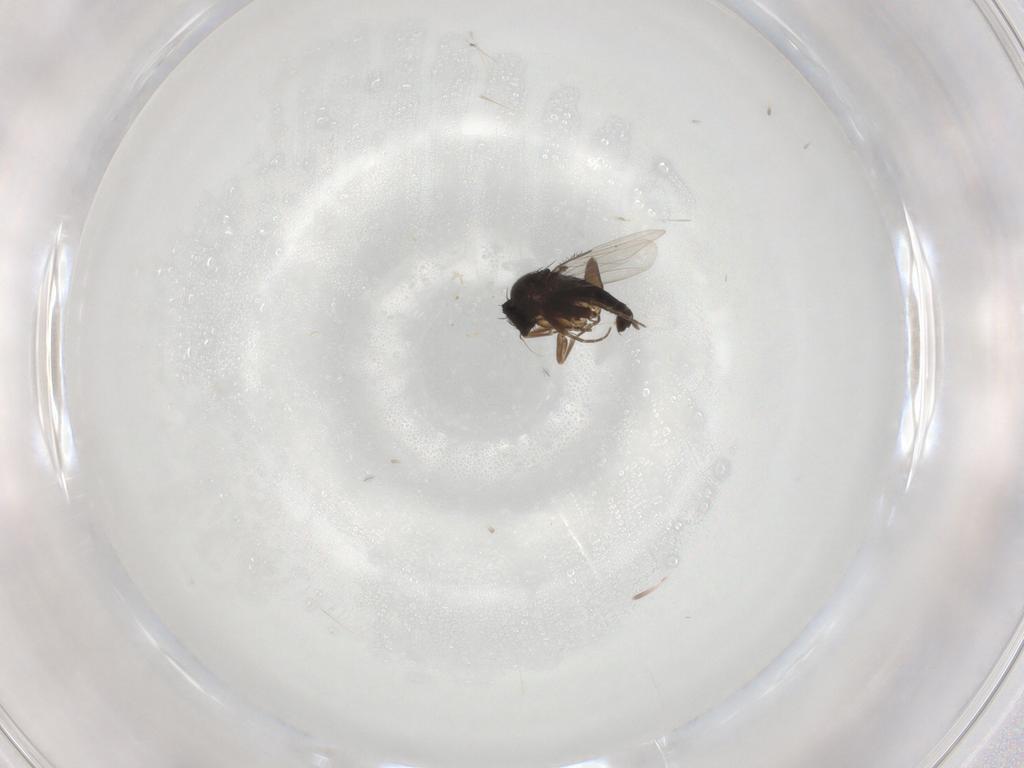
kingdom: Animalia
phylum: Arthropoda
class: Insecta
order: Diptera
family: Phoridae
